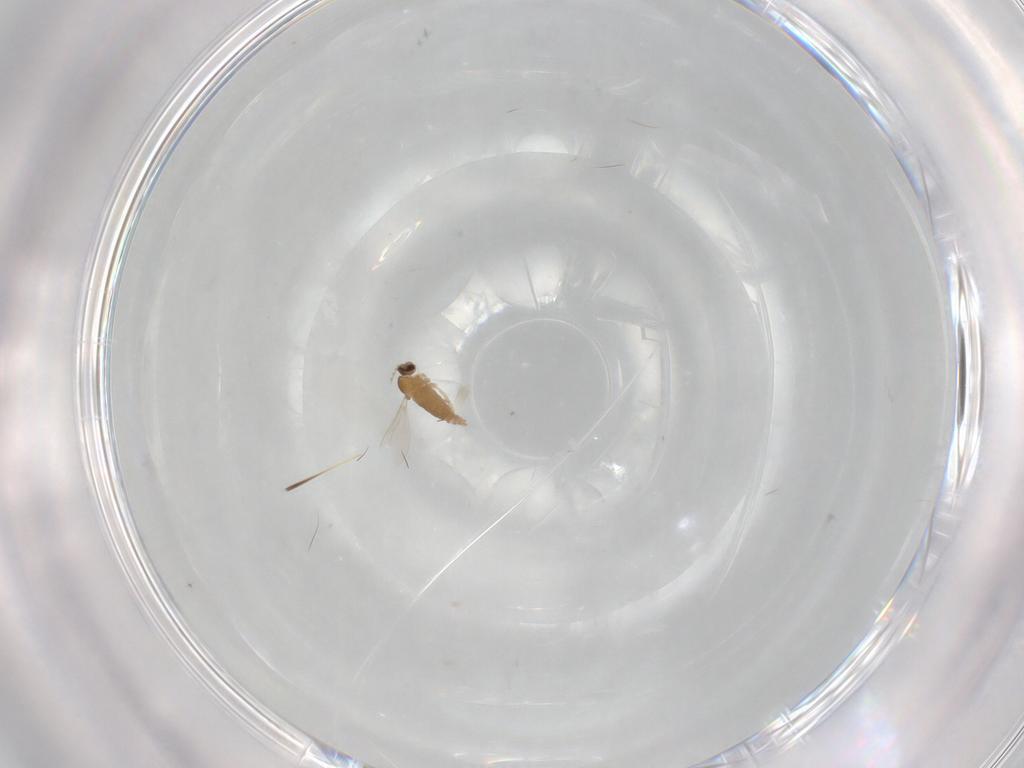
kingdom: Animalia
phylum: Arthropoda
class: Insecta
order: Diptera
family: Cecidomyiidae
